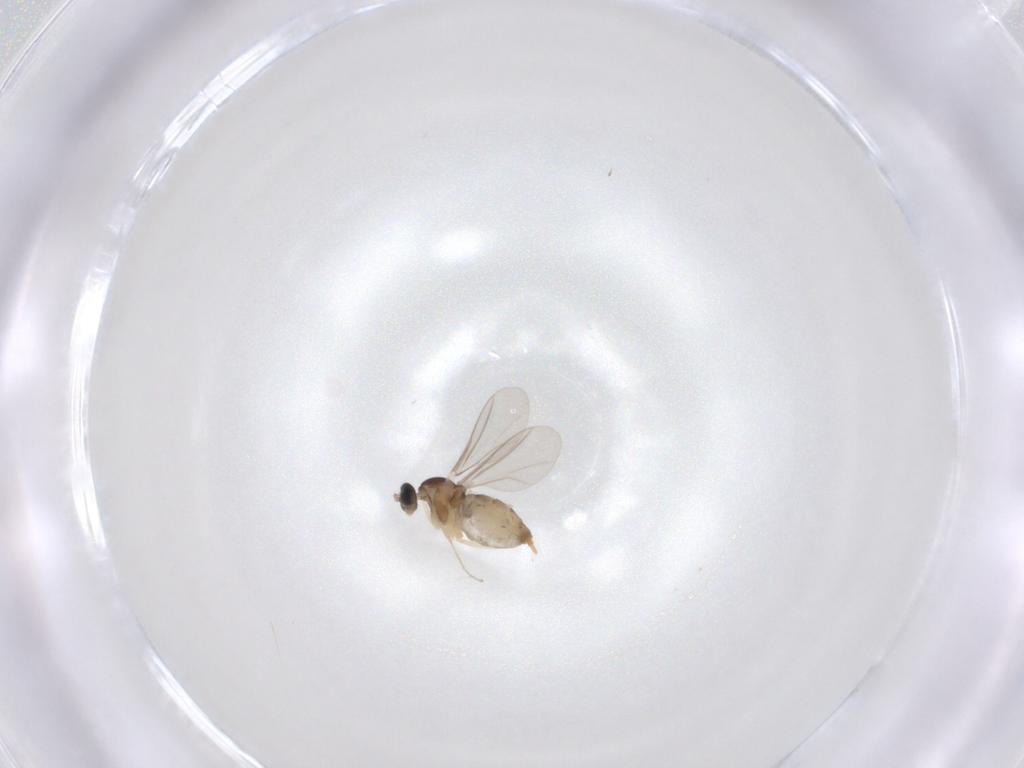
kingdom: Animalia
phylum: Arthropoda
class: Insecta
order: Diptera
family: Cecidomyiidae
